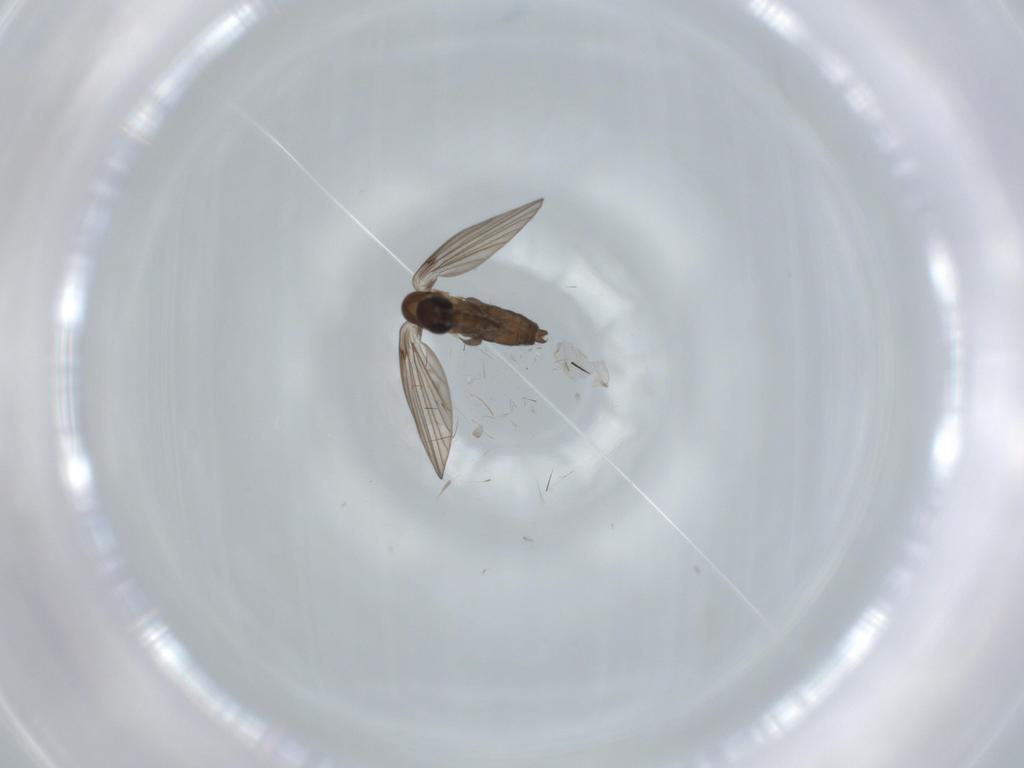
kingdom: Animalia
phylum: Arthropoda
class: Insecta
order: Diptera
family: Psychodidae
